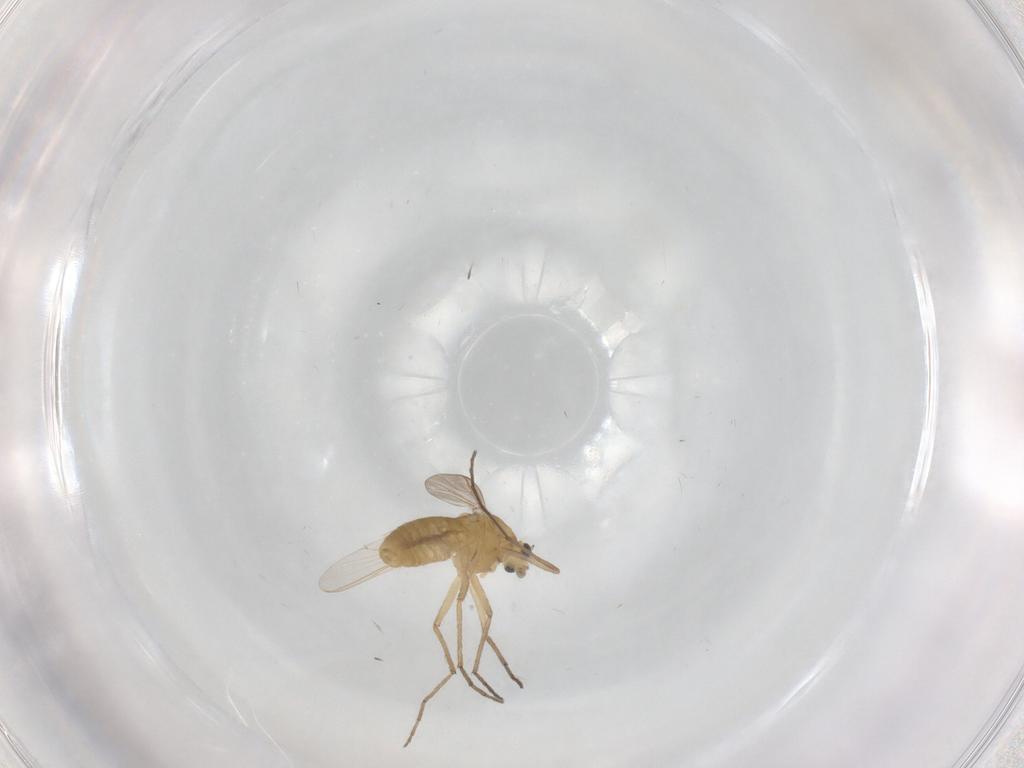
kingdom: Animalia
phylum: Arthropoda
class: Insecta
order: Diptera
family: Chironomidae
